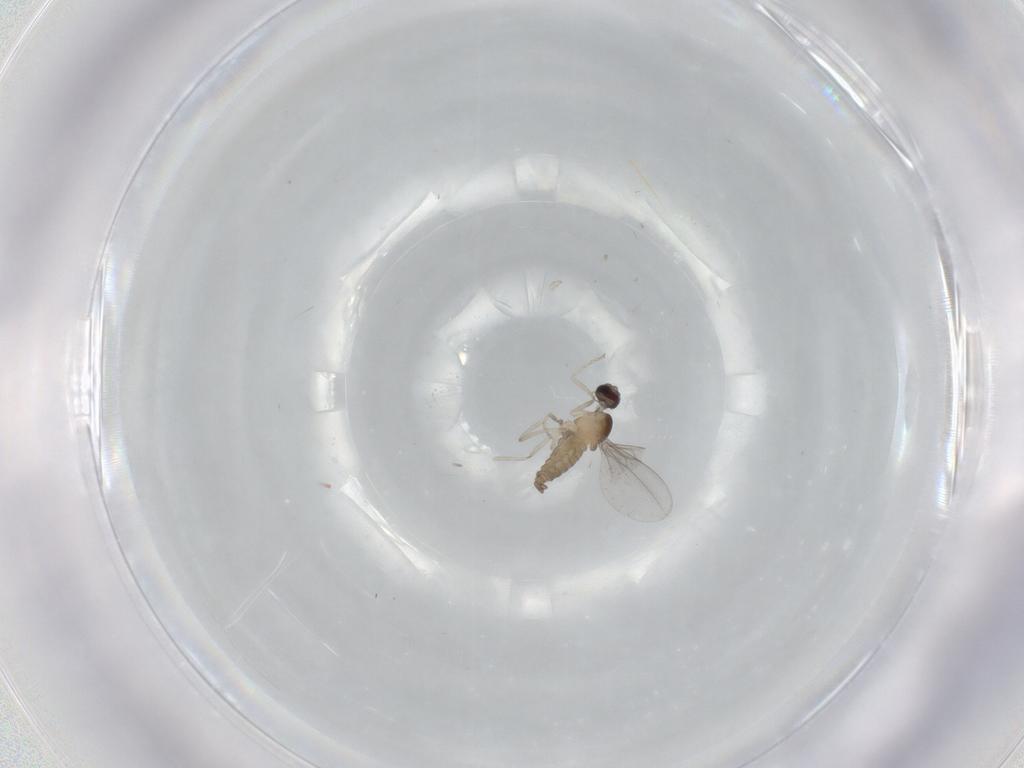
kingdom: Animalia
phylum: Arthropoda
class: Insecta
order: Diptera
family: Cecidomyiidae
